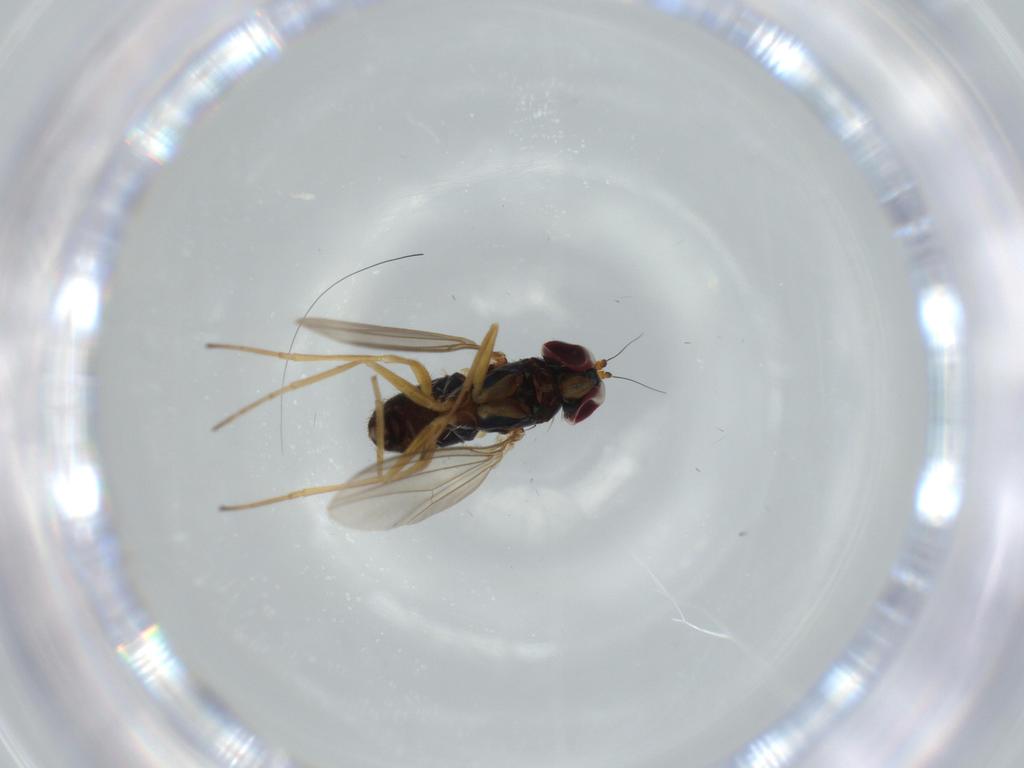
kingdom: Animalia
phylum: Arthropoda
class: Insecta
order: Diptera
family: Dolichopodidae
